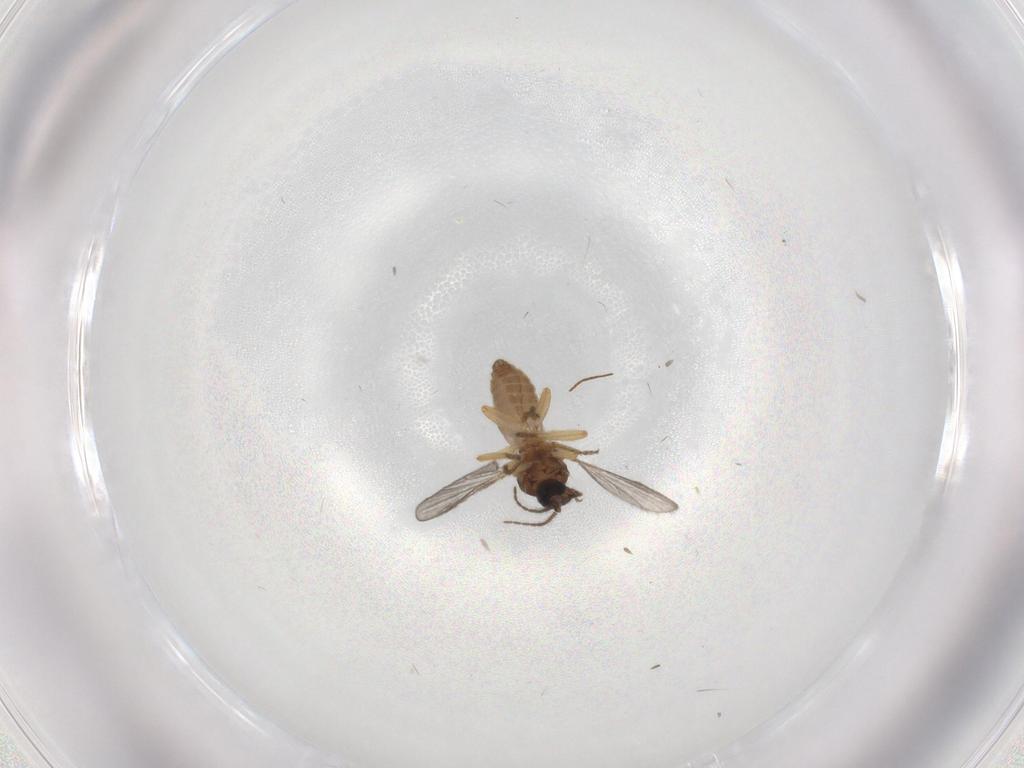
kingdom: Animalia
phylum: Arthropoda
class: Insecta
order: Diptera
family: Ceratopogonidae
